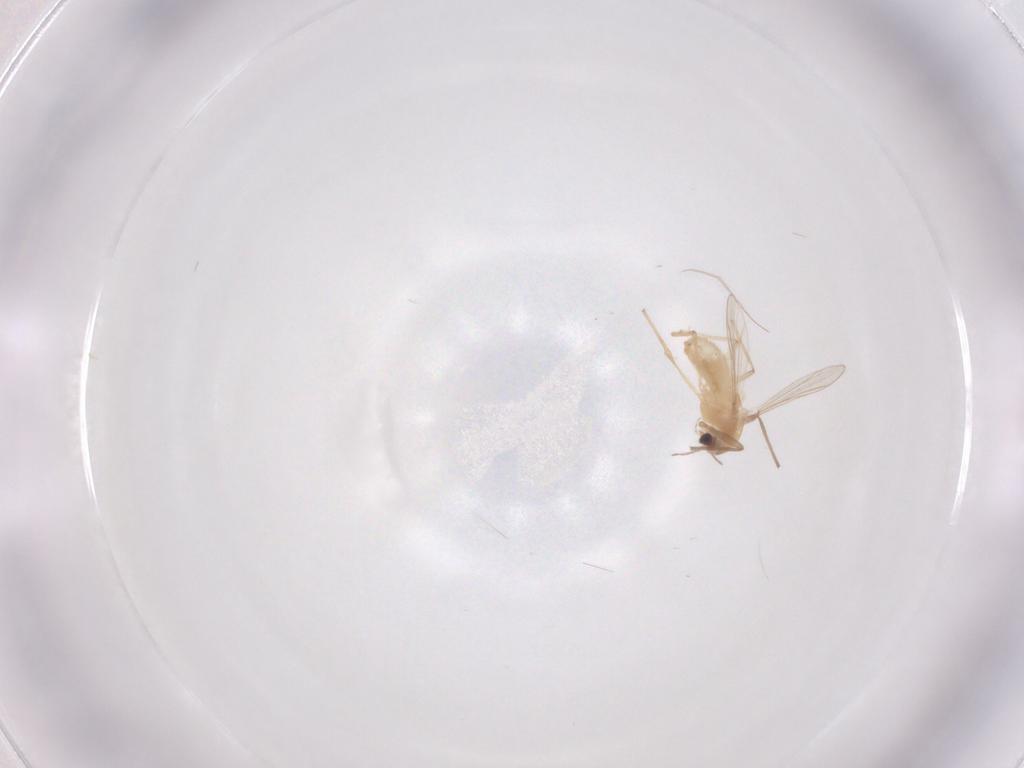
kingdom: Animalia
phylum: Arthropoda
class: Insecta
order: Diptera
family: Chironomidae
